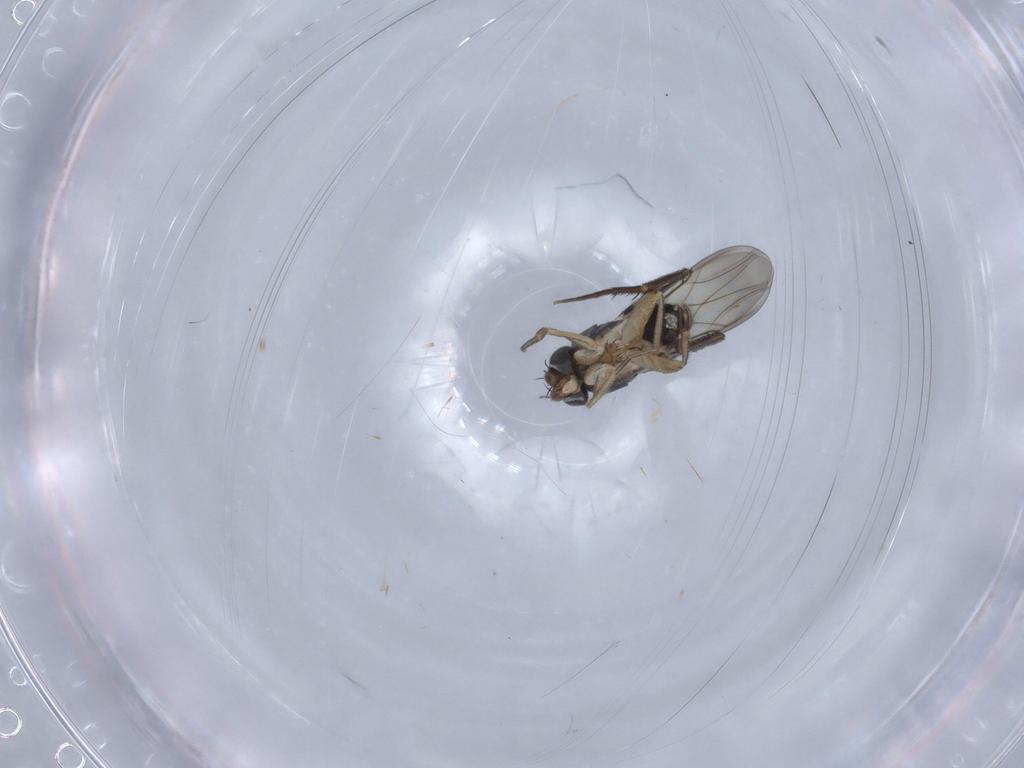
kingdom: Animalia
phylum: Arthropoda
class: Insecta
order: Diptera
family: Phoridae
